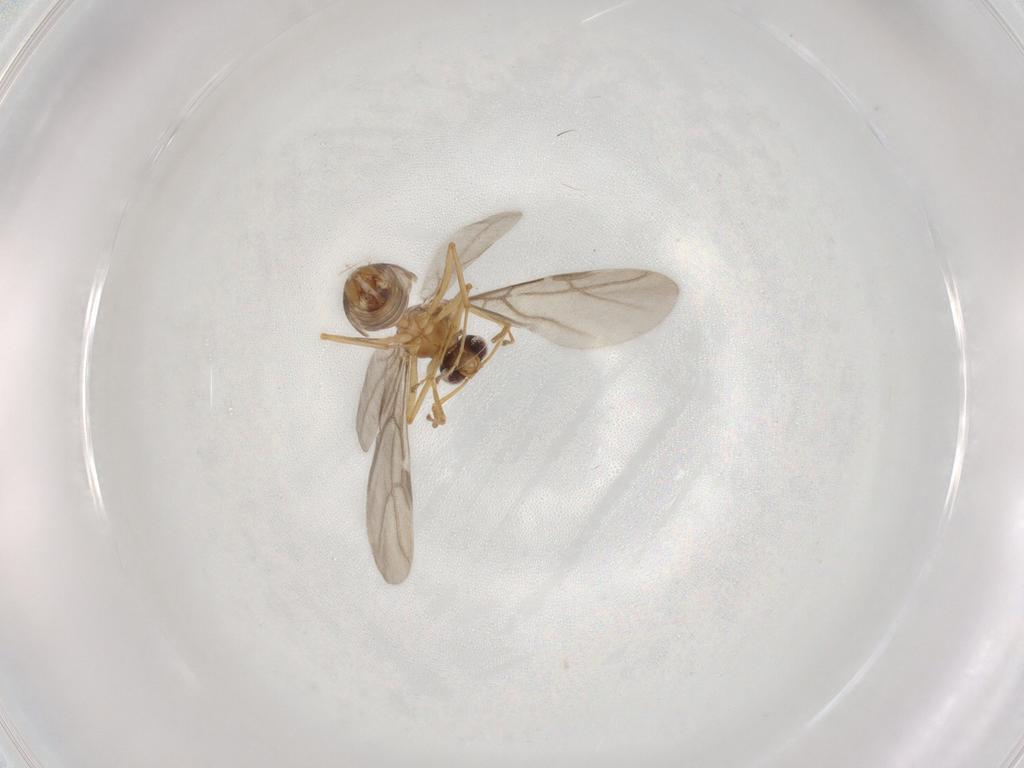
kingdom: Animalia
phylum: Arthropoda
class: Insecta
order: Hymenoptera
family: Formicidae
